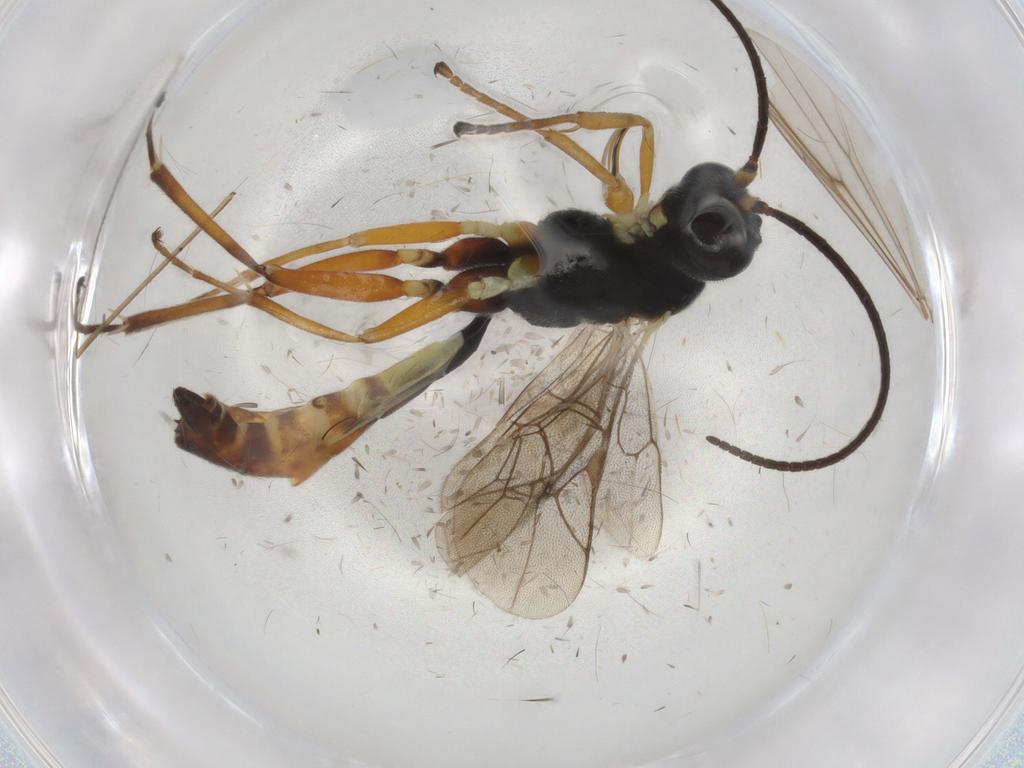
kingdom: Animalia
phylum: Arthropoda
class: Insecta
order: Hymenoptera
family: Ichneumonidae
